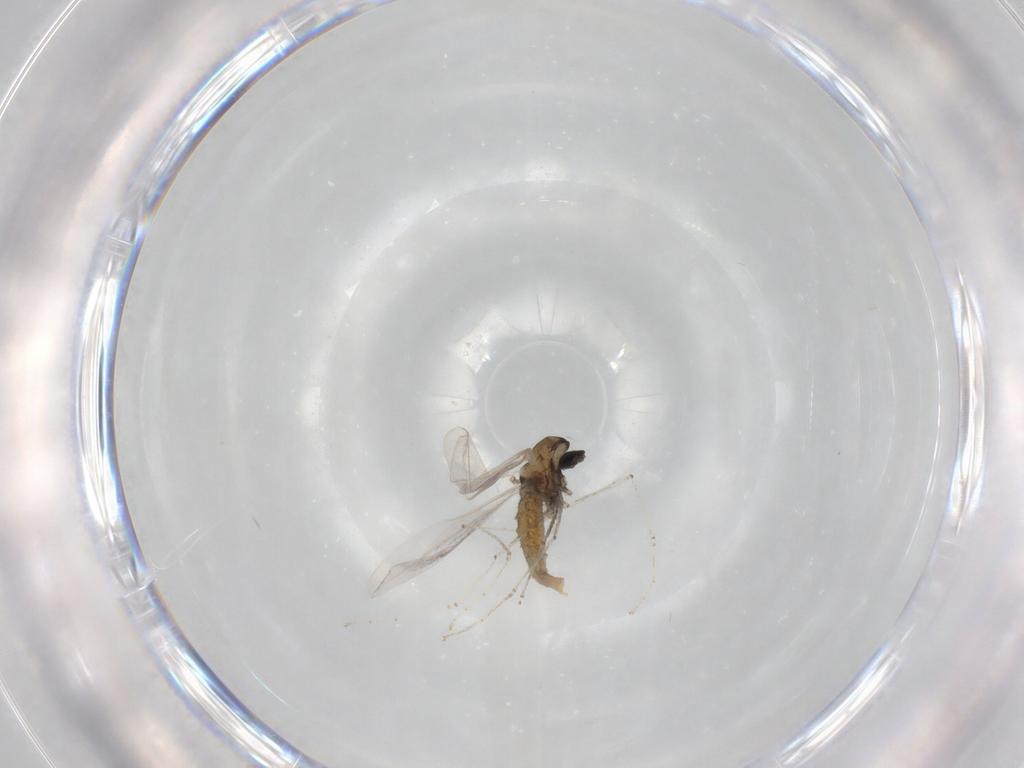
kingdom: Animalia
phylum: Arthropoda
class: Insecta
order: Diptera
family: Cecidomyiidae
